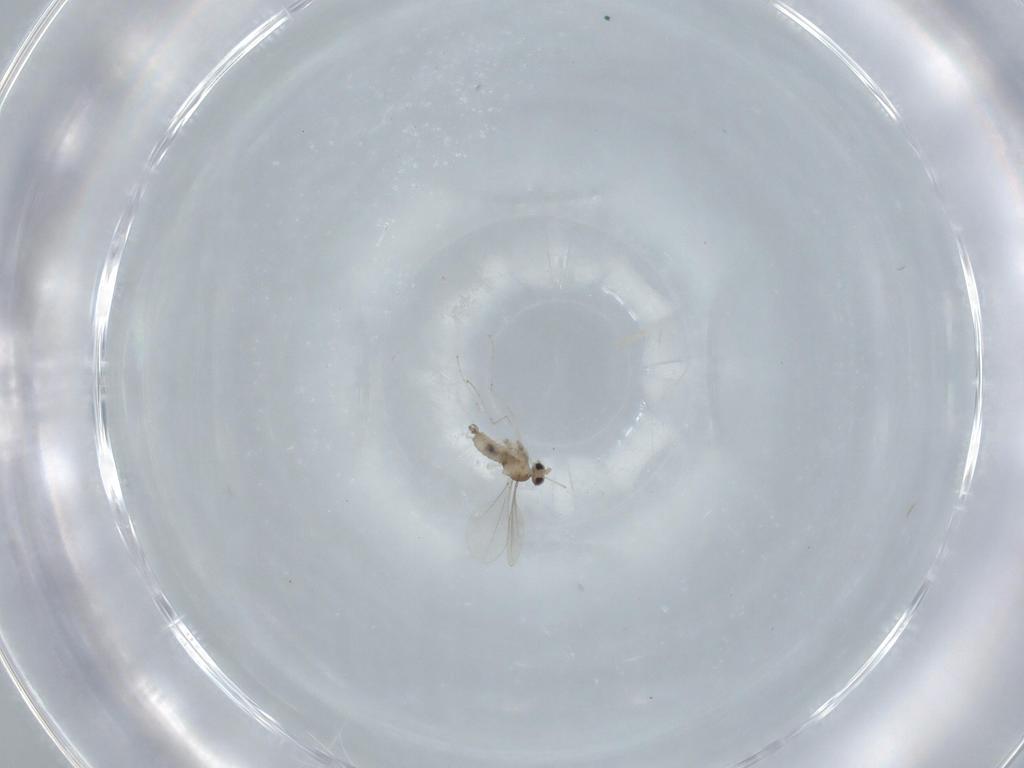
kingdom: Animalia
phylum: Arthropoda
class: Insecta
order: Diptera
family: Cecidomyiidae
